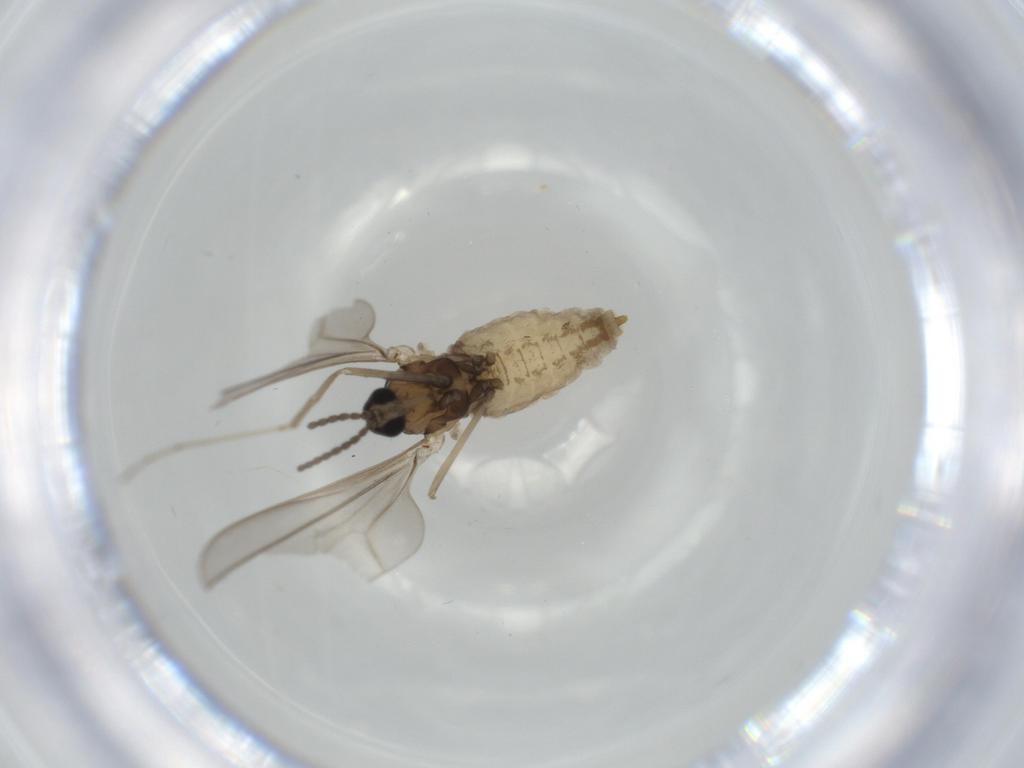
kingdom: Animalia
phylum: Arthropoda
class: Insecta
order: Diptera
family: Cecidomyiidae
